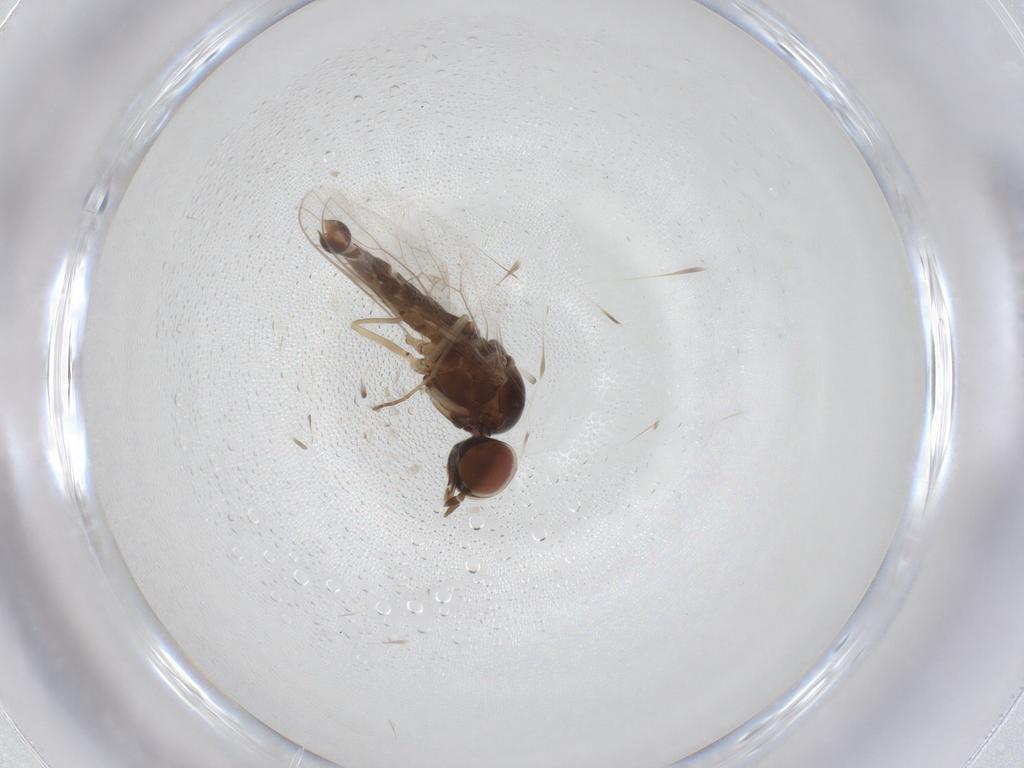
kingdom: Animalia
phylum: Arthropoda
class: Insecta
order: Diptera
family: Scenopinidae
